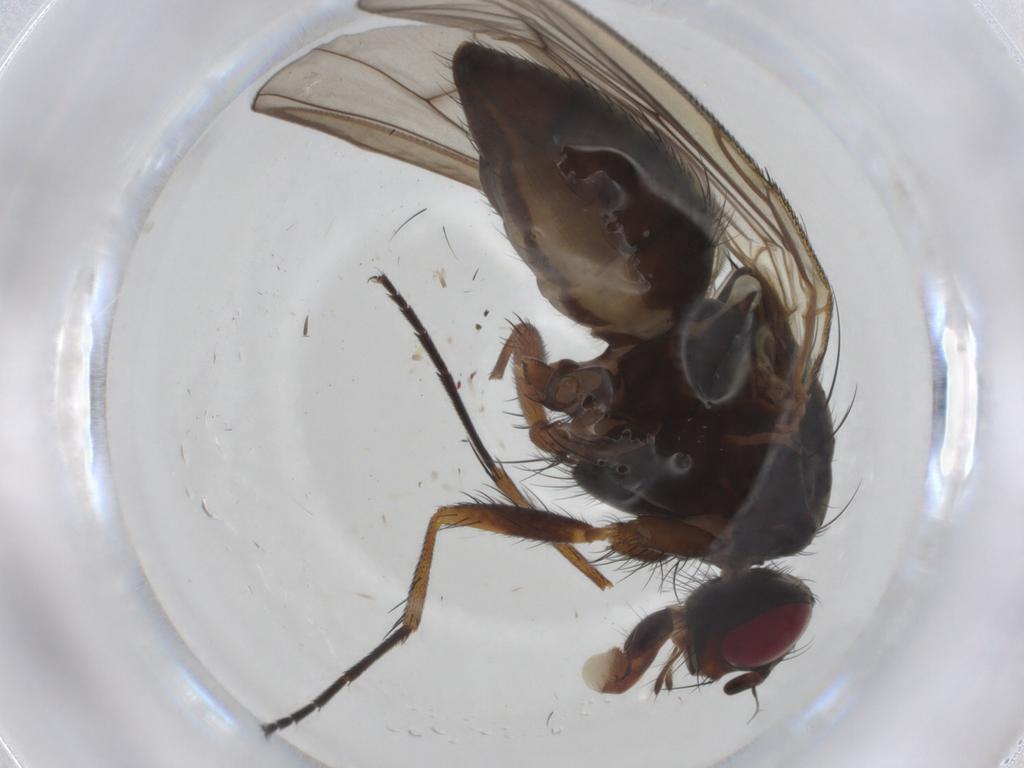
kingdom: Animalia
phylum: Arthropoda
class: Insecta
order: Diptera
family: Anthomyiidae
